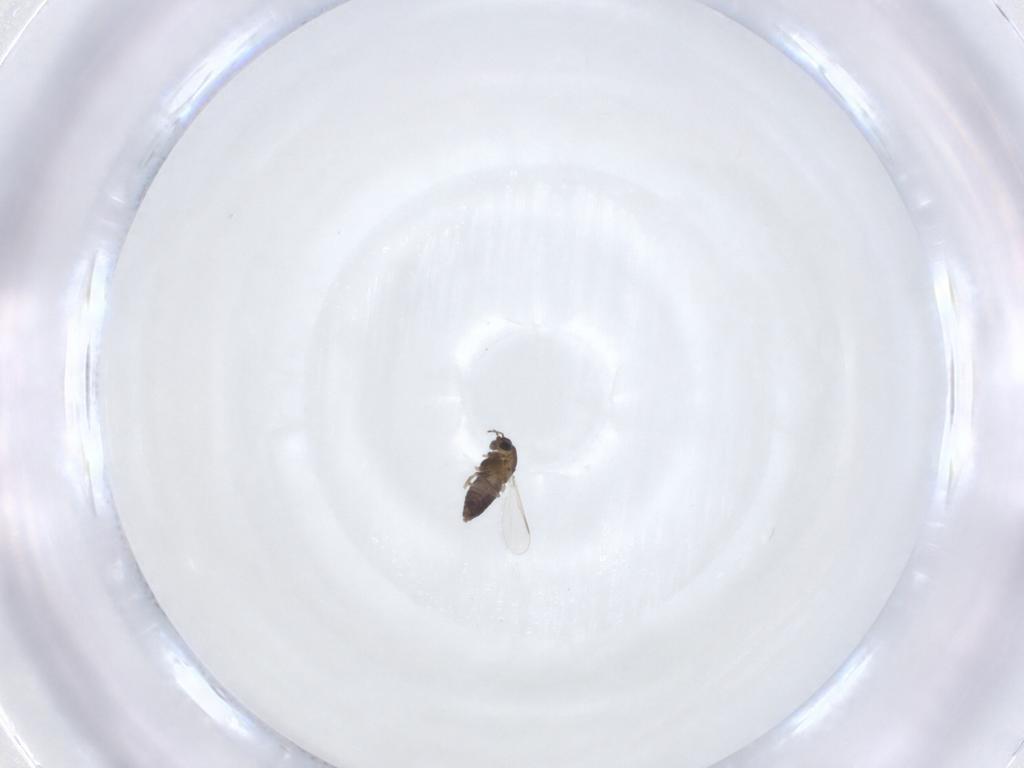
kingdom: Animalia
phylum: Arthropoda
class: Insecta
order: Diptera
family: Chironomidae
